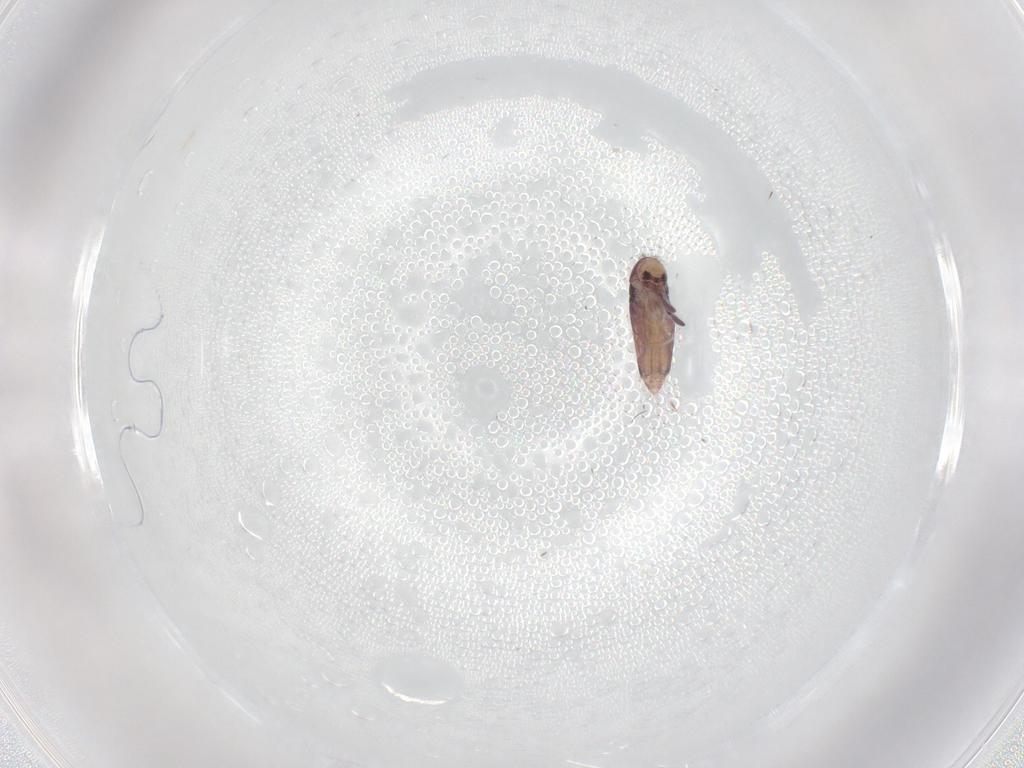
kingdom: Animalia
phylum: Arthropoda
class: Collembola
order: Entomobryomorpha
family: Entomobryidae
